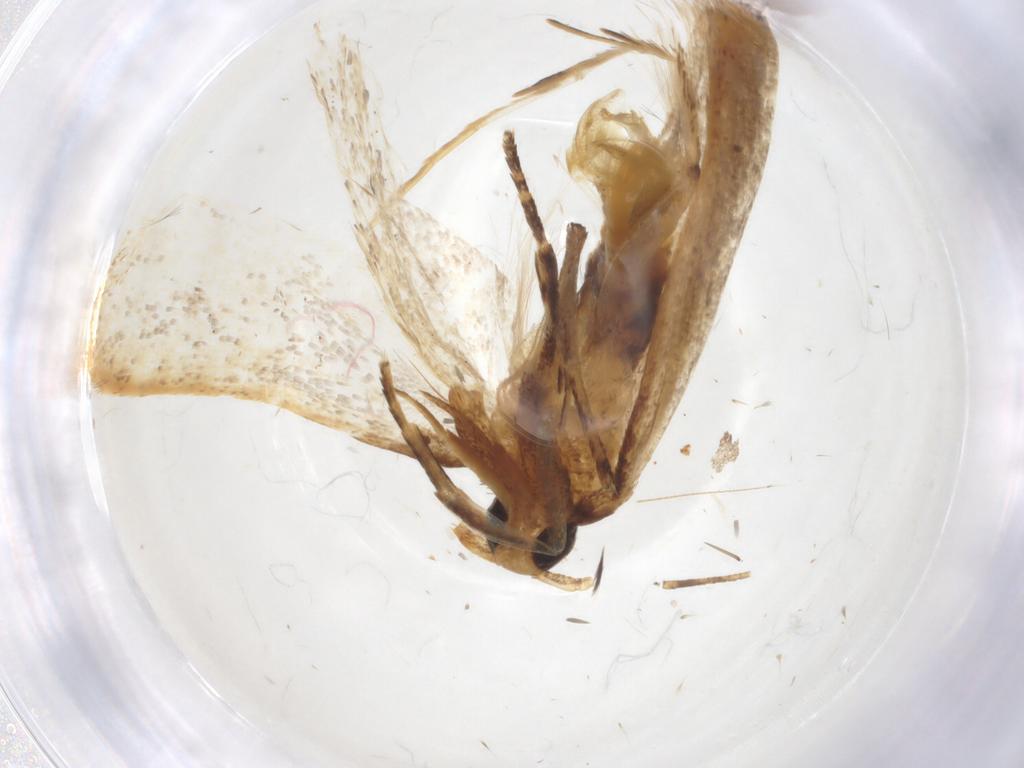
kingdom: Animalia
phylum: Arthropoda
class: Insecta
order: Lepidoptera
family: Lecithoceridae
